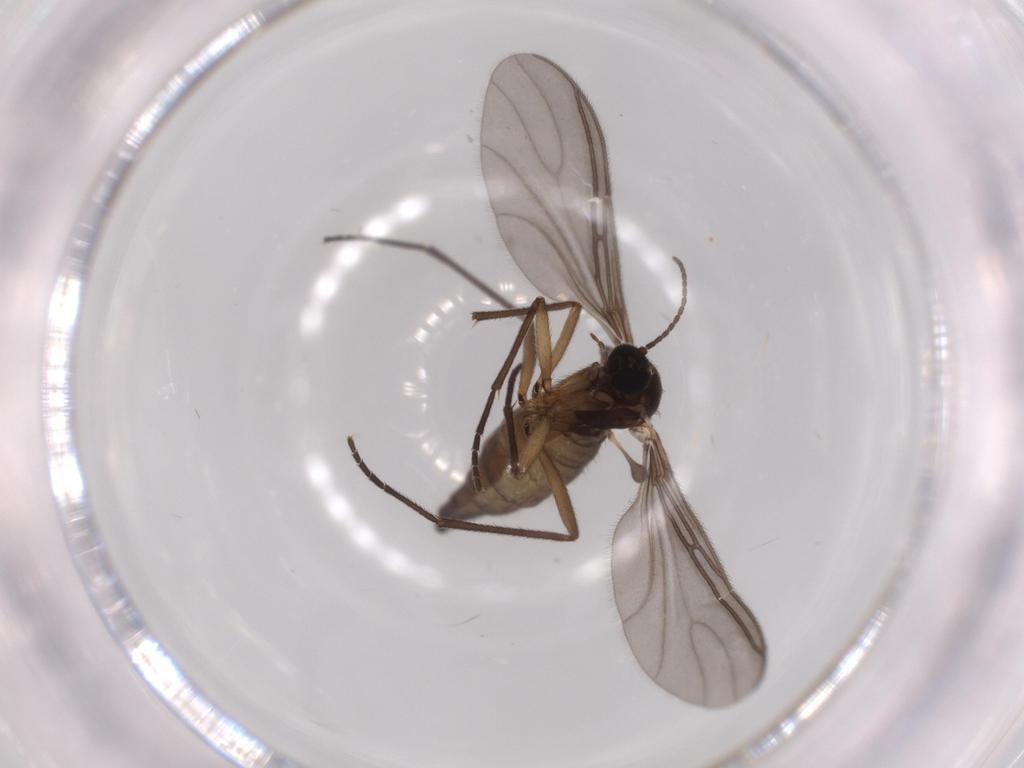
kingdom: Animalia
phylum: Arthropoda
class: Insecta
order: Diptera
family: Sciaridae
